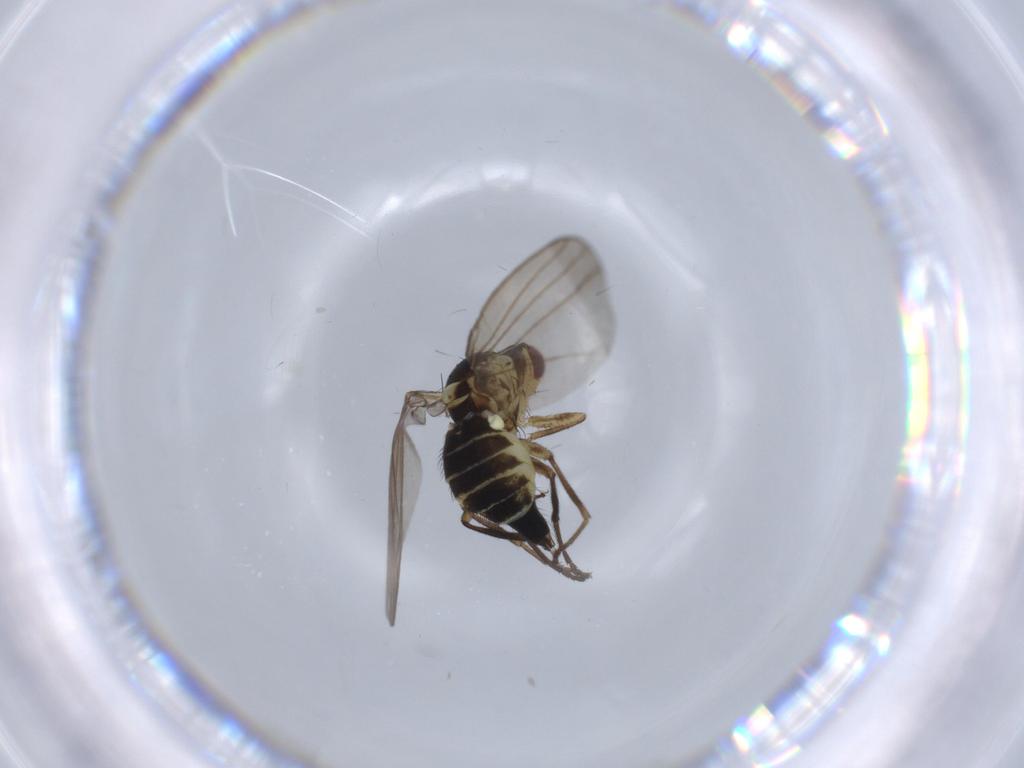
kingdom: Animalia
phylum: Arthropoda
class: Insecta
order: Diptera
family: Agromyzidae
